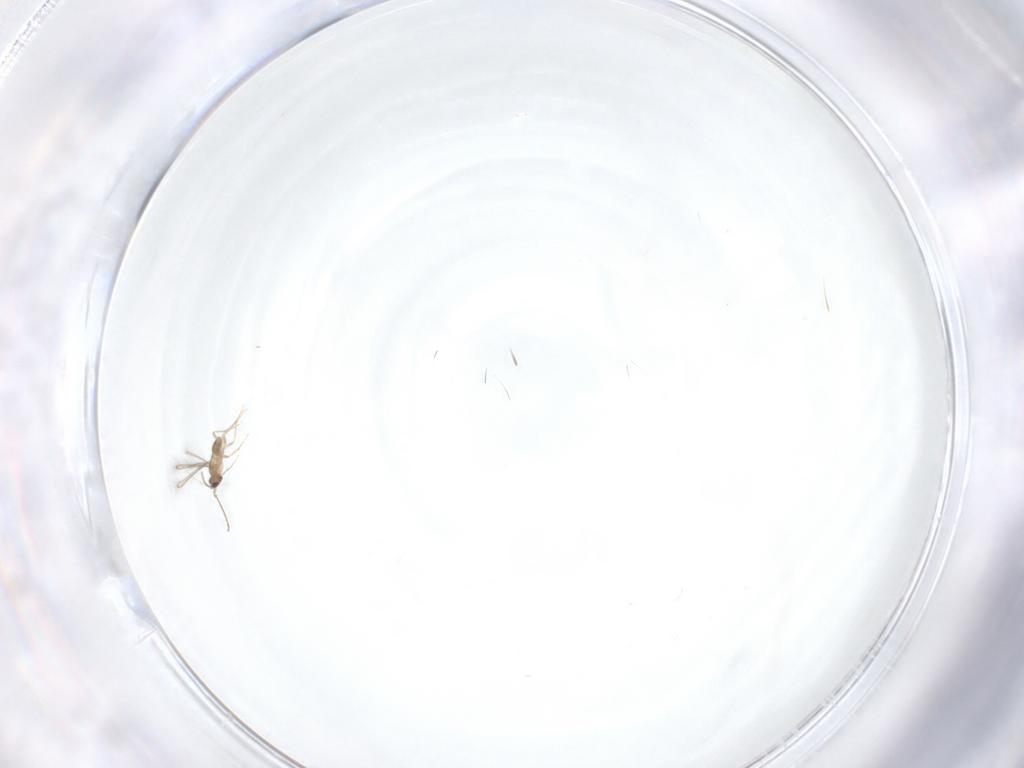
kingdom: Animalia
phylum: Arthropoda
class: Insecta
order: Hymenoptera
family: Mymaridae
